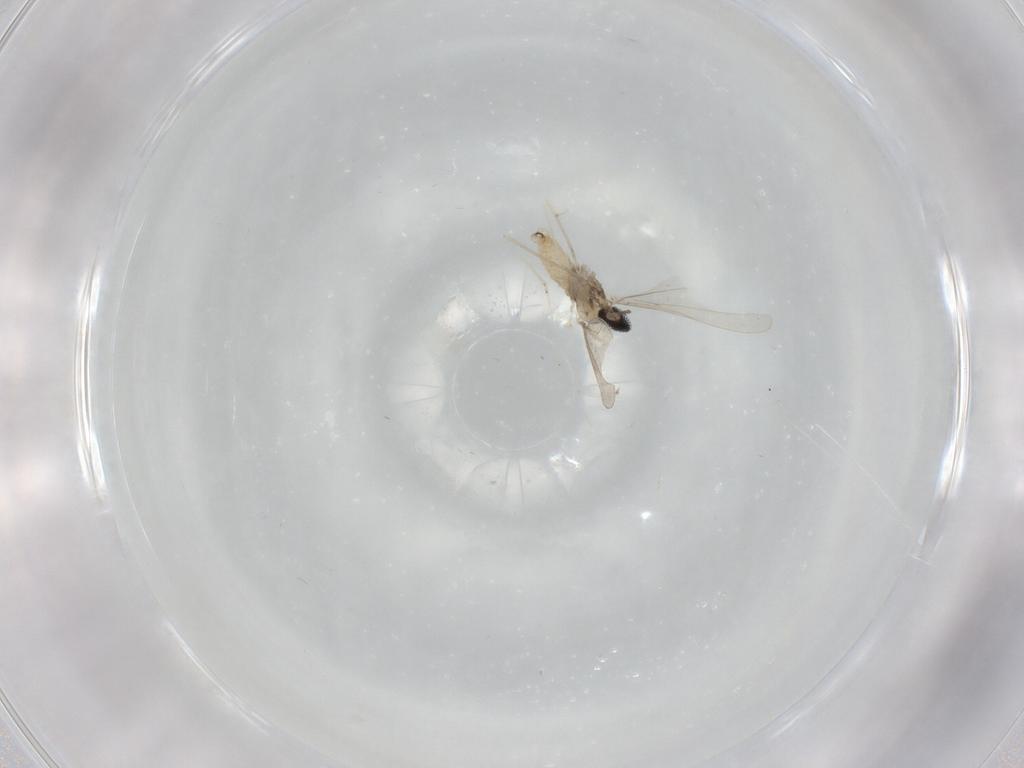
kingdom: Animalia
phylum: Arthropoda
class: Insecta
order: Diptera
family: Cecidomyiidae
